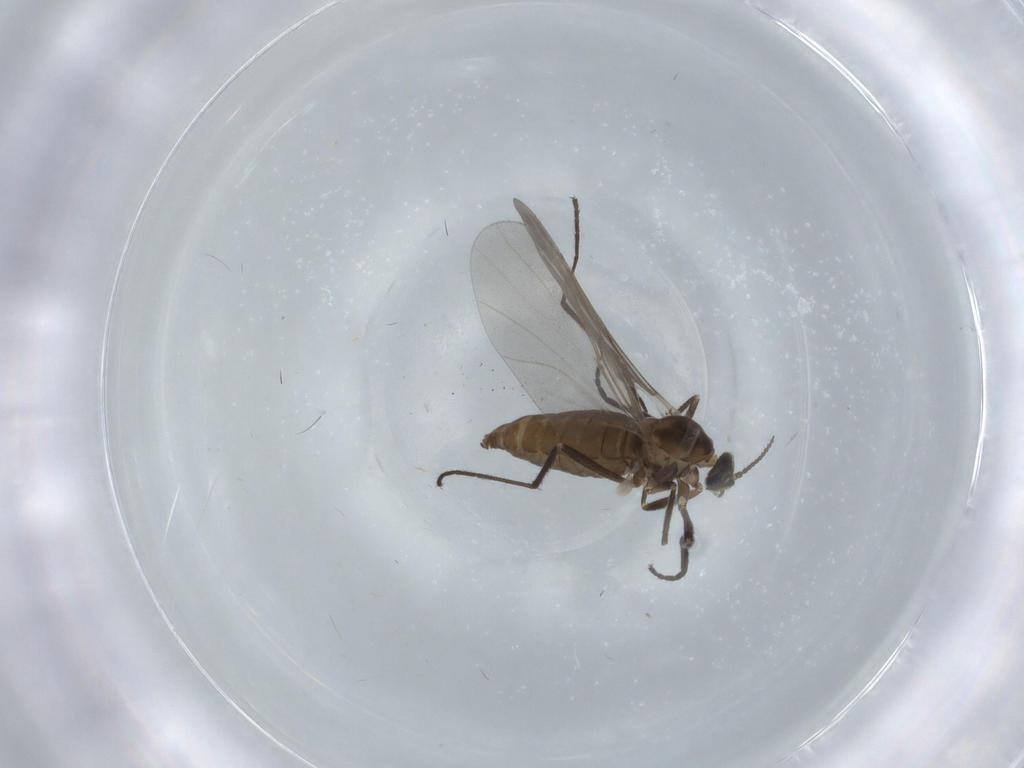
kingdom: Animalia
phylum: Arthropoda
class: Insecta
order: Diptera
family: Cecidomyiidae
